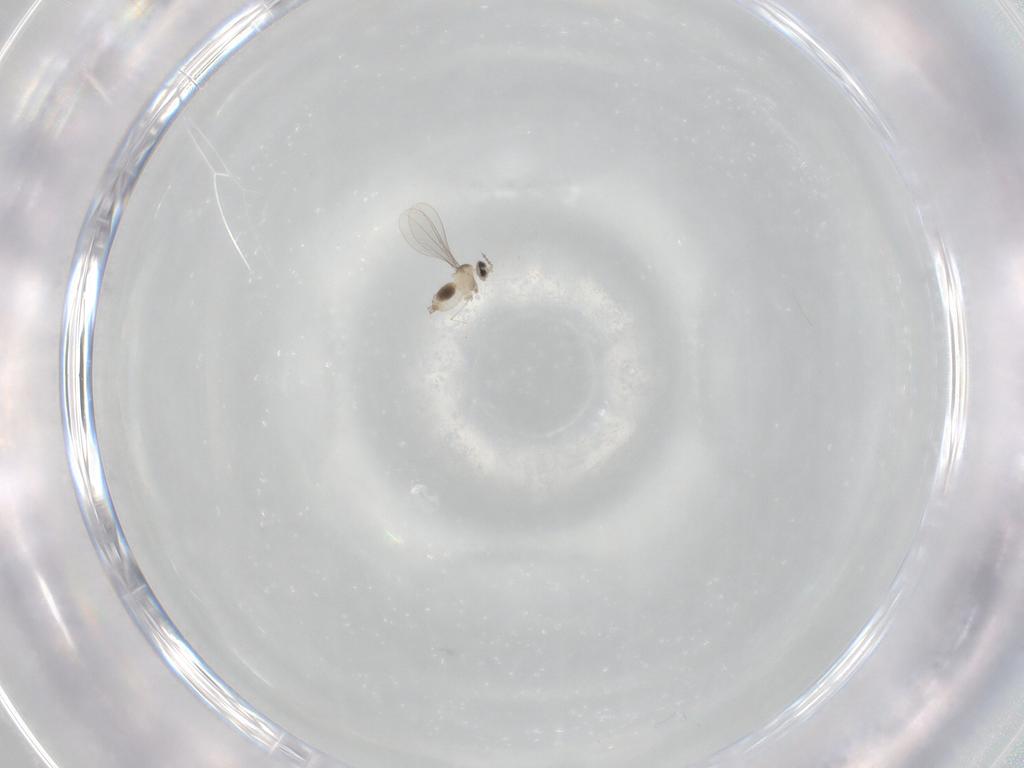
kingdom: Animalia
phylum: Arthropoda
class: Insecta
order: Diptera
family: Cecidomyiidae
